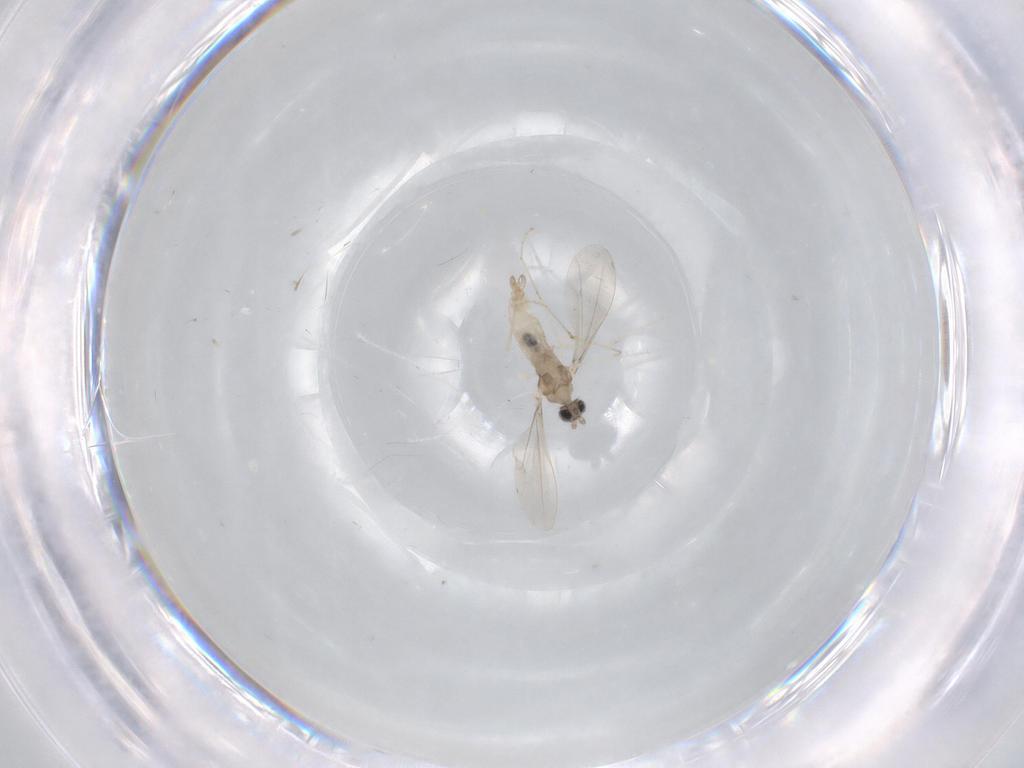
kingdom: Animalia
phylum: Arthropoda
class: Insecta
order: Diptera
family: Cecidomyiidae
